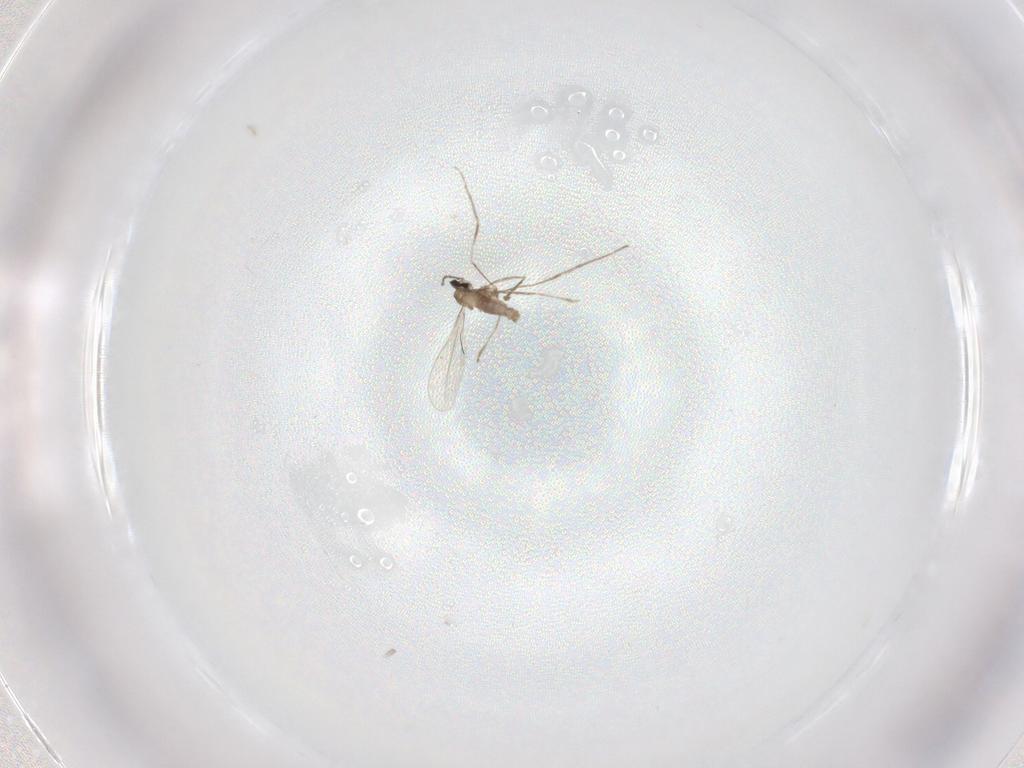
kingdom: Animalia
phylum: Arthropoda
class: Insecta
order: Diptera
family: Cecidomyiidae
